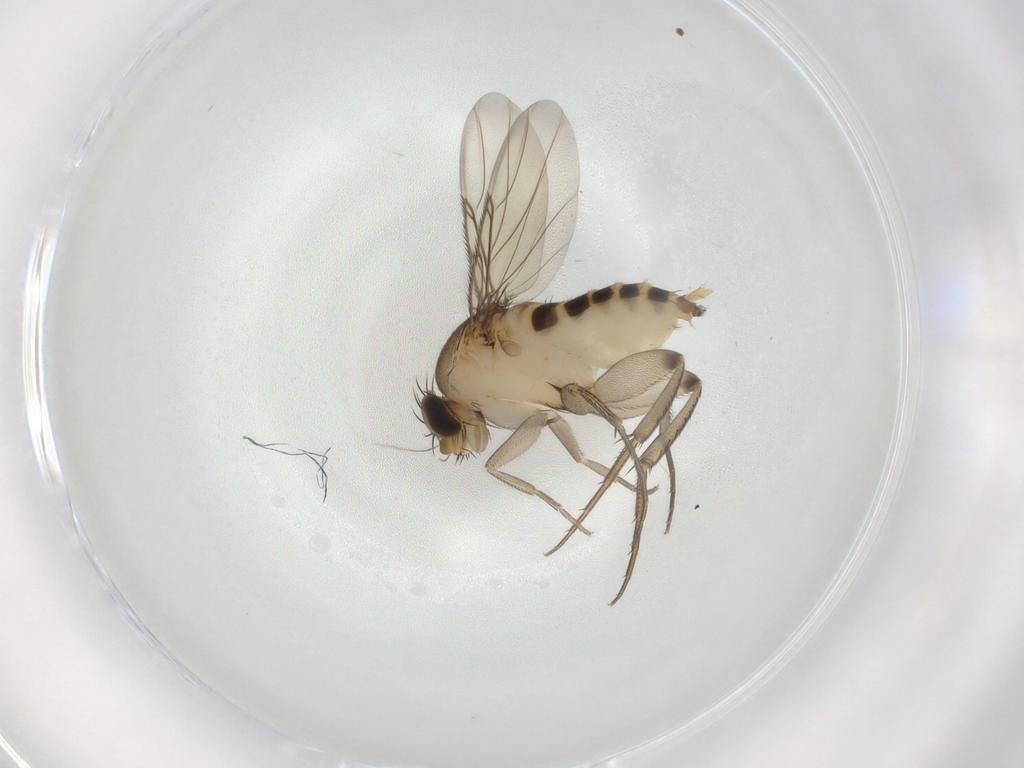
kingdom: Animalia
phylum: Arthropoda
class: Insecta
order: Diptera
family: Phoridae
